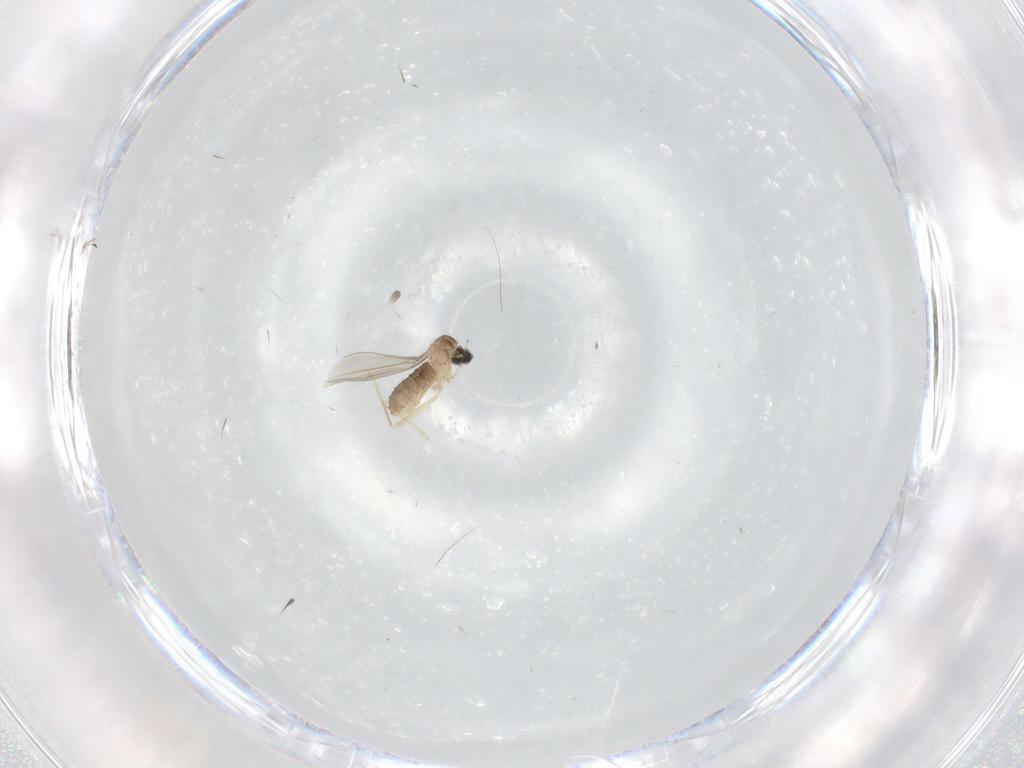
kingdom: Animalia
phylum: Arthropoda
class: Insecta
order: Diptera
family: Cecidomyiidae
